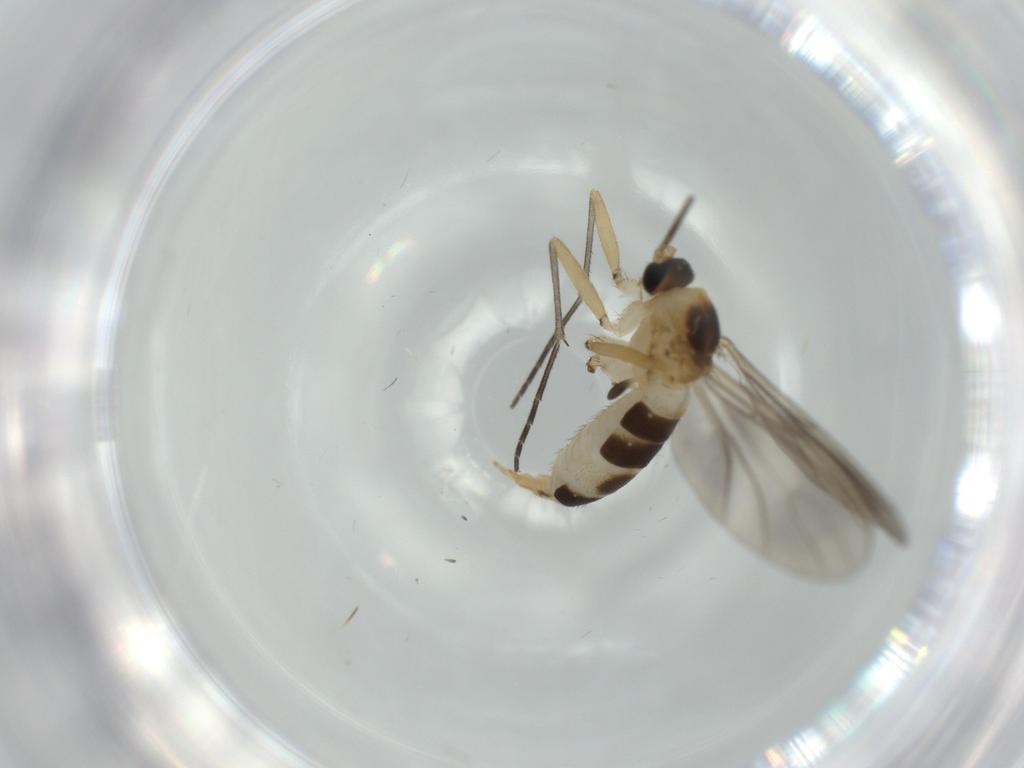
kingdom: Animalia
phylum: Arthropoda
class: Insecta
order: Diptera
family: Sciaridae
